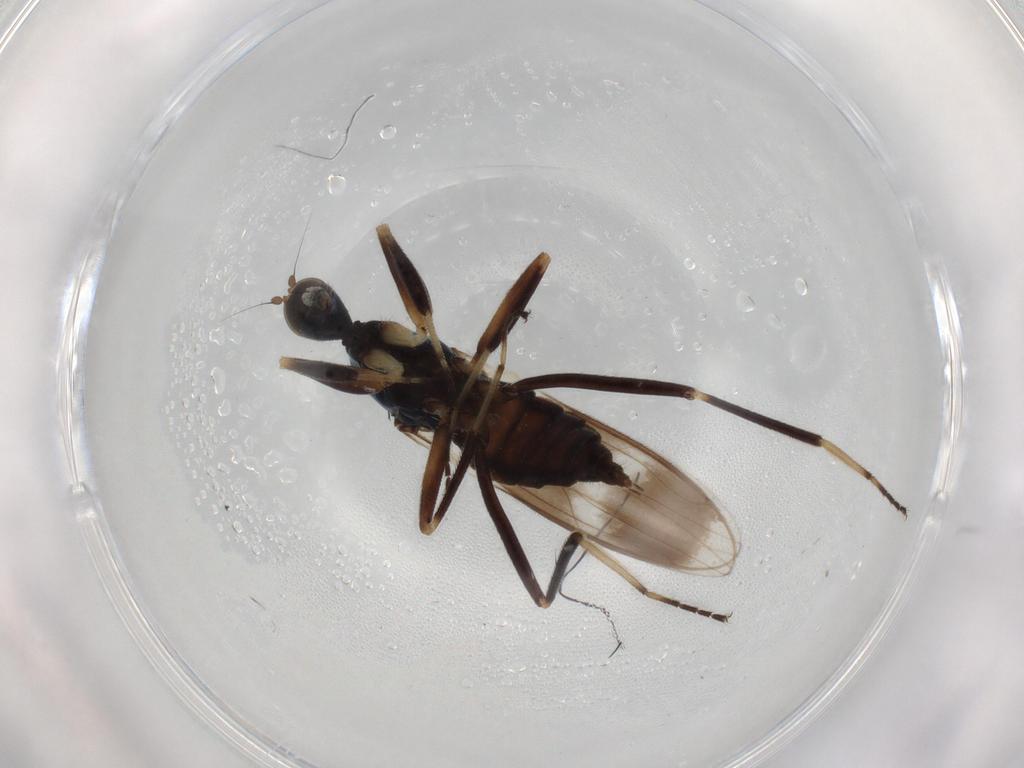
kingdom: Animalia
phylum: Arthropoda
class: Insecta
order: Diptera
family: Hybotidae
